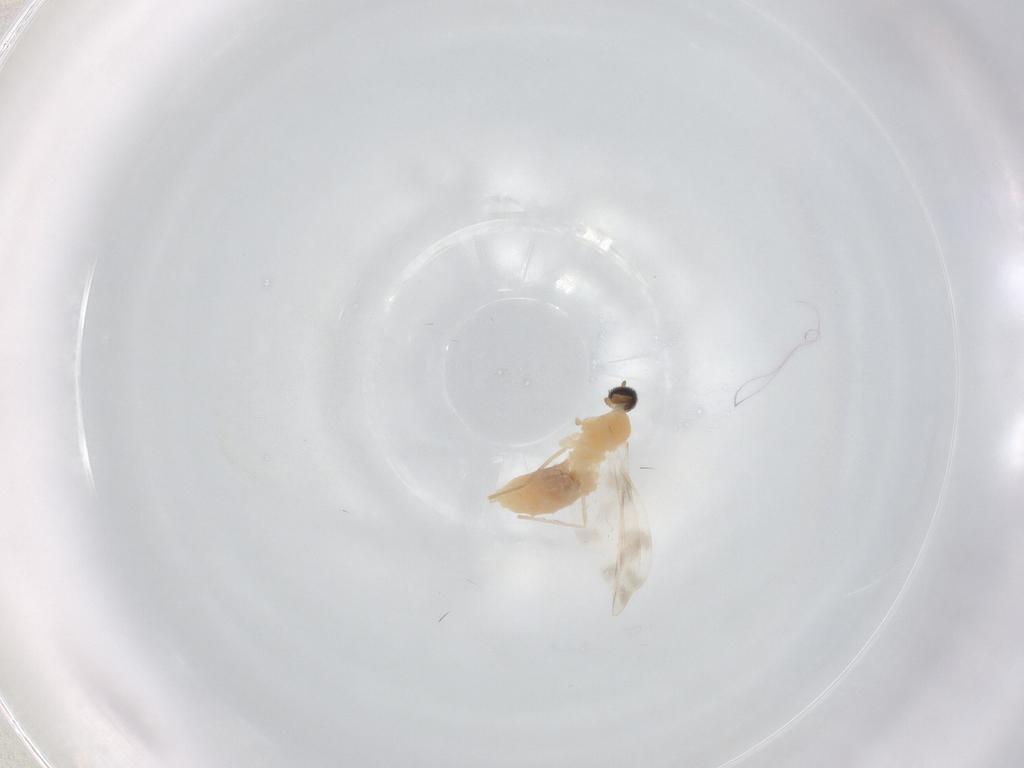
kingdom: Animalia
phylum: Arthropoda
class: Insecta
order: Diptera
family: Cecidomyiidae
